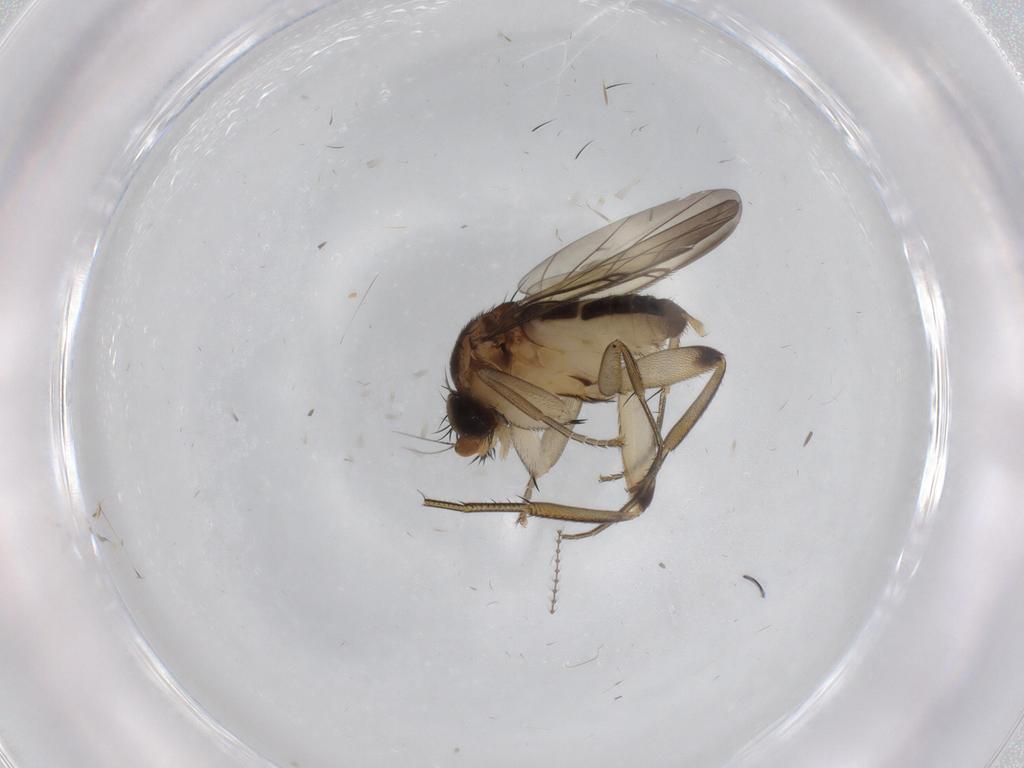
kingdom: Animalia
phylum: Arthropoda
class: Insecta
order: Diptera
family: Phoridae
